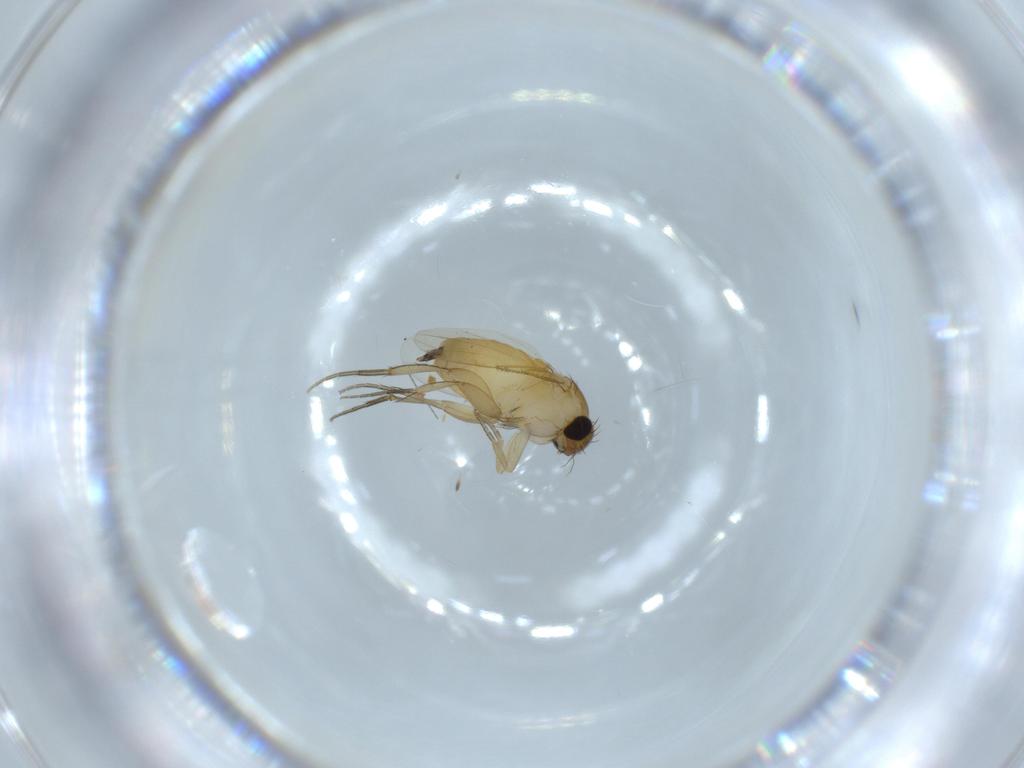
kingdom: Animalia
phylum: Arthropoda
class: Insecta
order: Diptera
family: Phoridae
